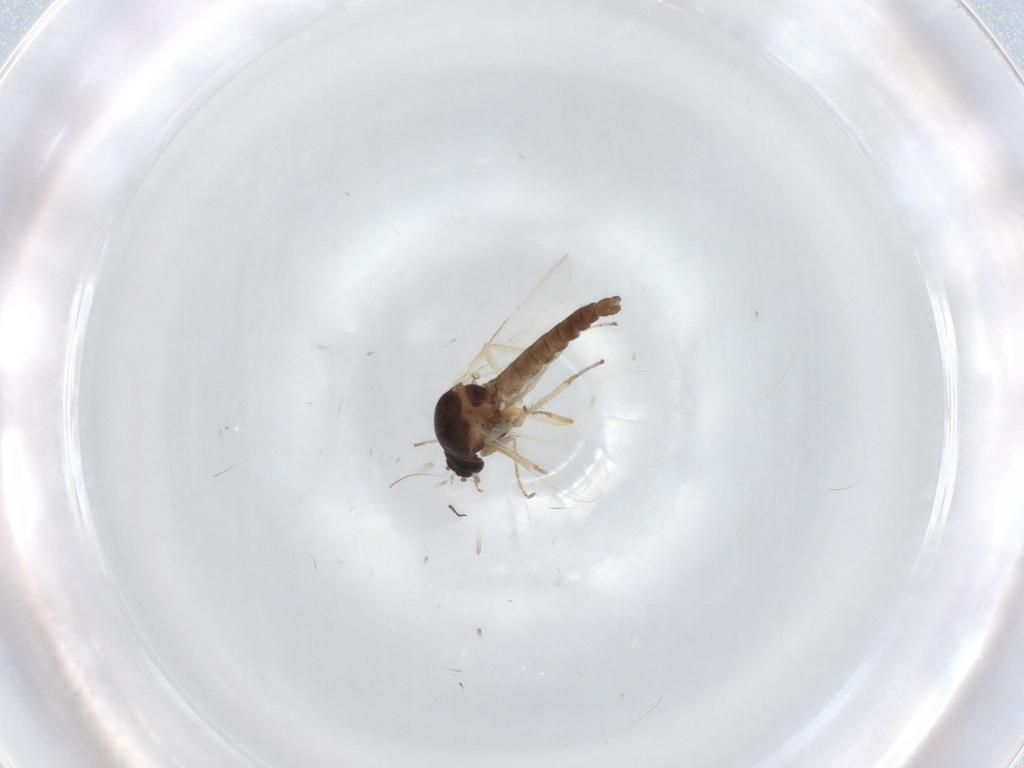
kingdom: Animalia
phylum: Arthropoda
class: Insecta
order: Diptera
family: Ceratopogonidae
